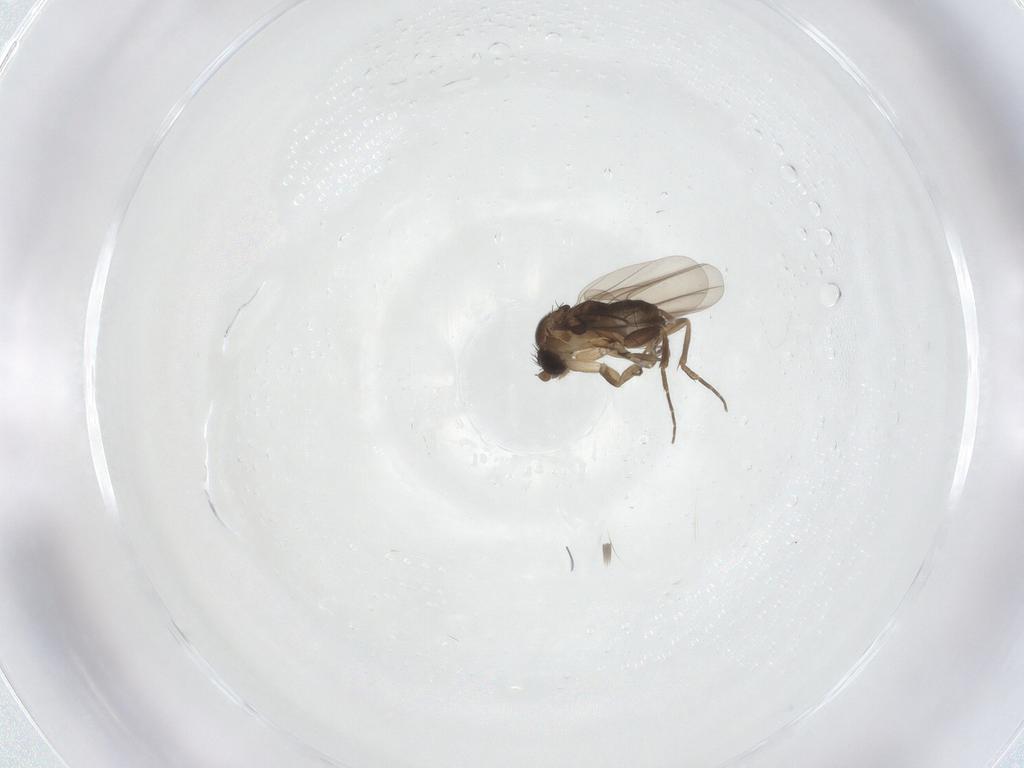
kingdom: Animalia
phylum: Arthropoda
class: Insecta
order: Diptera
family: Phoridae
